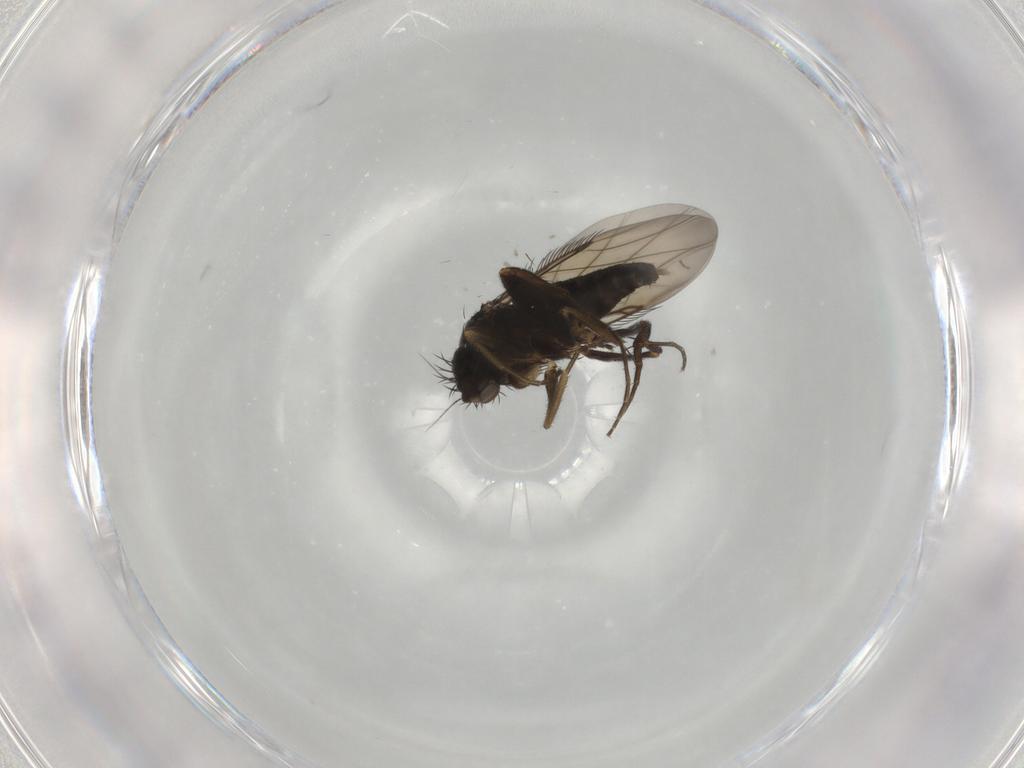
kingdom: Animalia
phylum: Arthropoda
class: Insecta
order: Diptera
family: Phoridae
